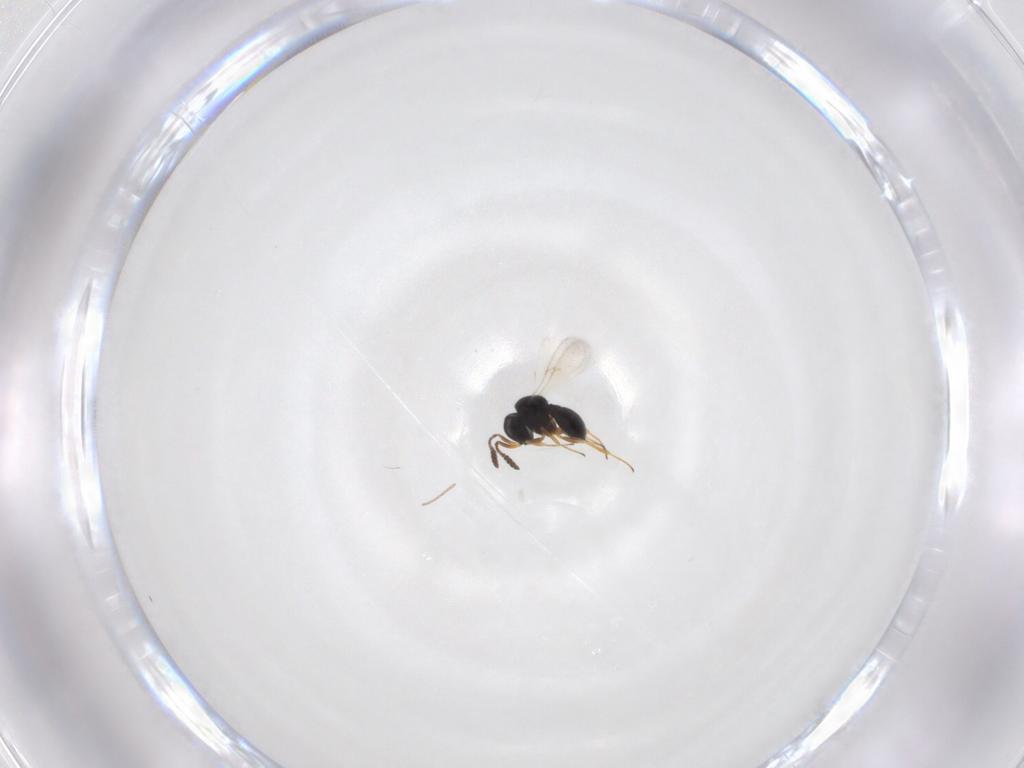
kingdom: Animalia
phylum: Arthropoda
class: Insecta
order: Hymenoptera
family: Scelionidae
